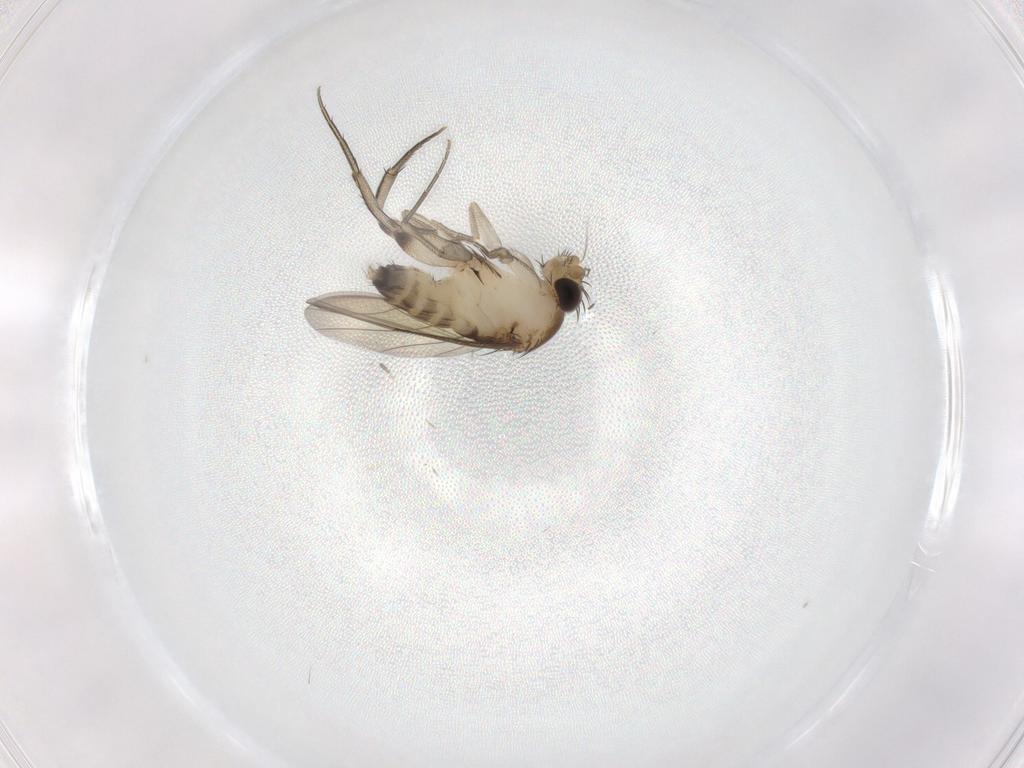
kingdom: Animalia
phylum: Arthropoda
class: Insecta
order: Diptera
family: Phoridae
